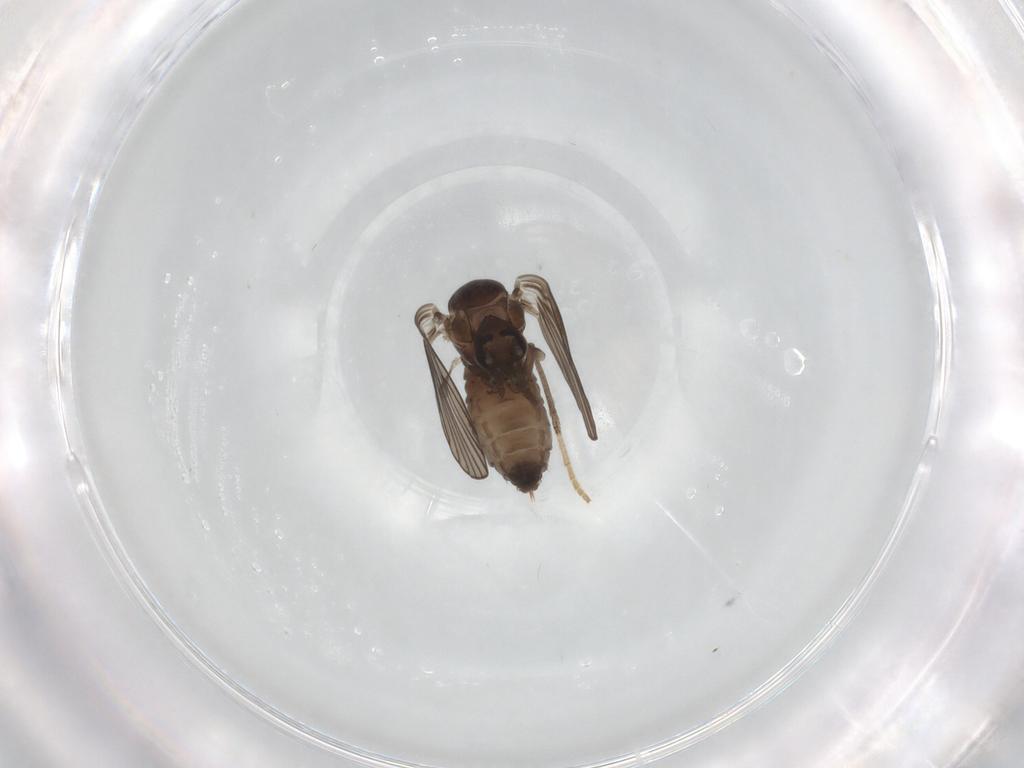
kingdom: Animalia
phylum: Arthropoda
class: Insecta
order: Diptera
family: Psychodidae
